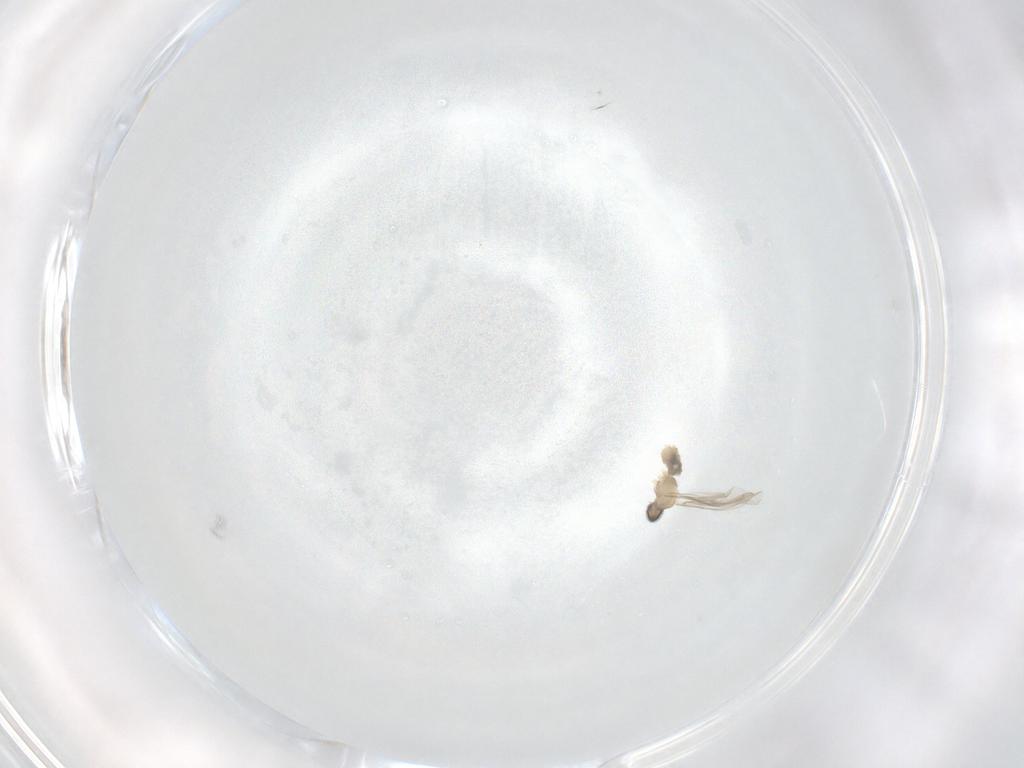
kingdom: Animalia
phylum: Arthropoda
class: Insecta
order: Diptera
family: Cecidomyiidae
